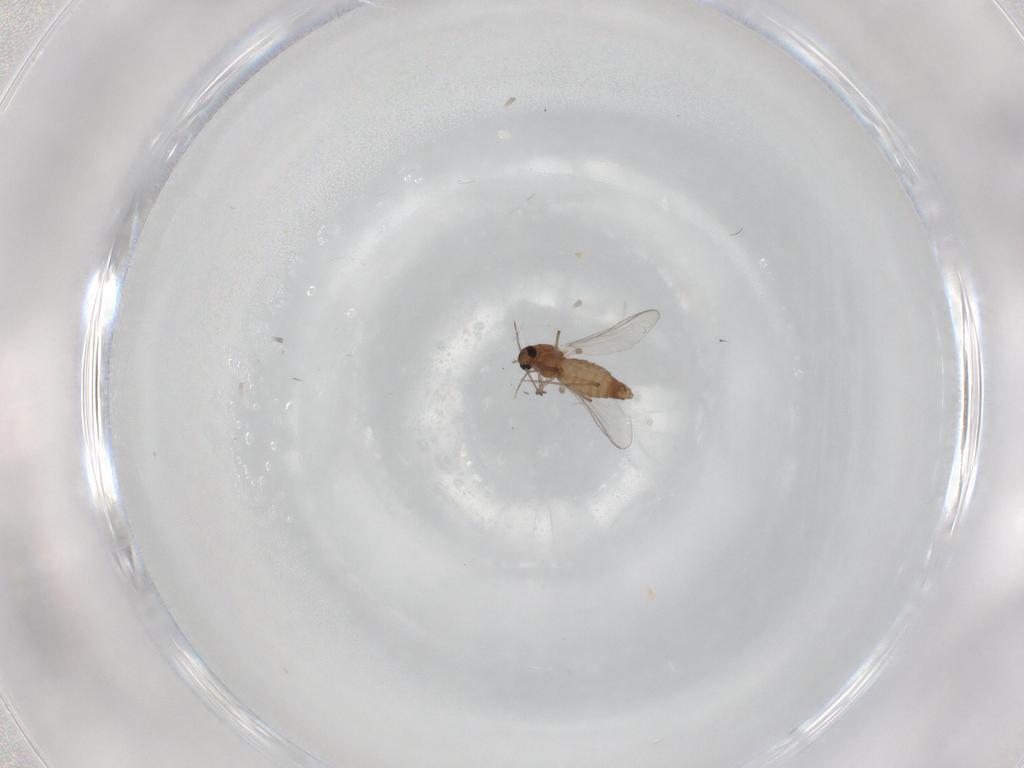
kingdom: Animalia
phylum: Arthropoda
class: Insecta
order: Diptera
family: Chironomidae
